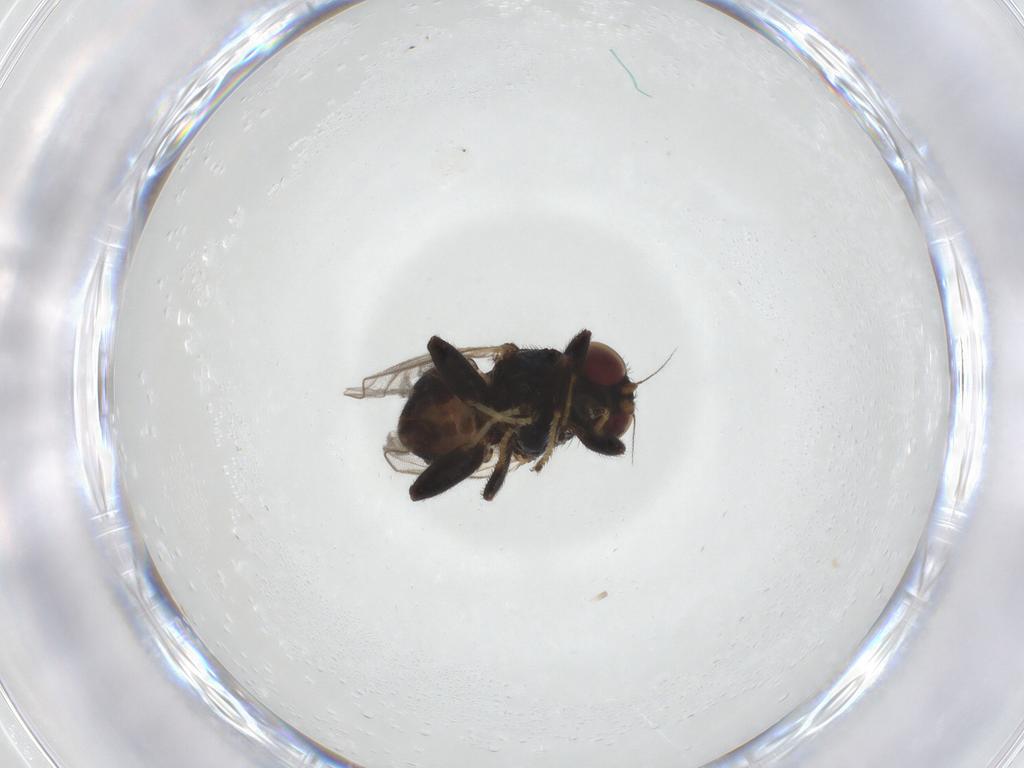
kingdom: Animalia
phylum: Arthropoda
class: Insecta
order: Diptera
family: Chloropidae
